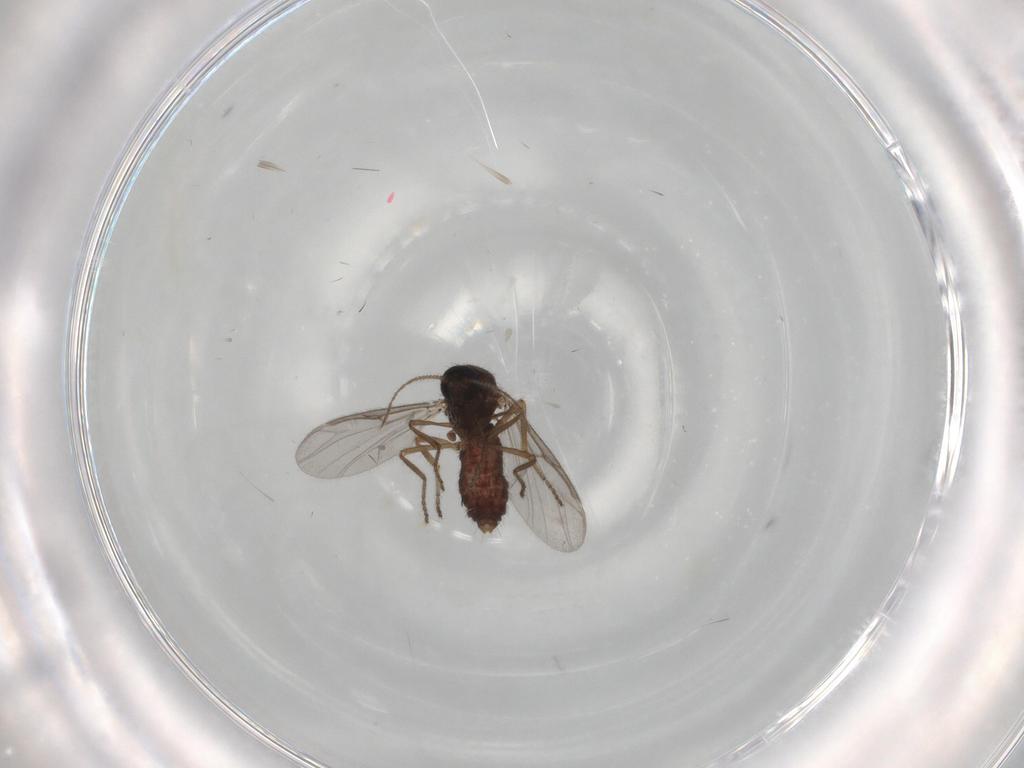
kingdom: Animalia
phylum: Arthropoda
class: Insecta
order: Diptera
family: Ceratopogonidae
